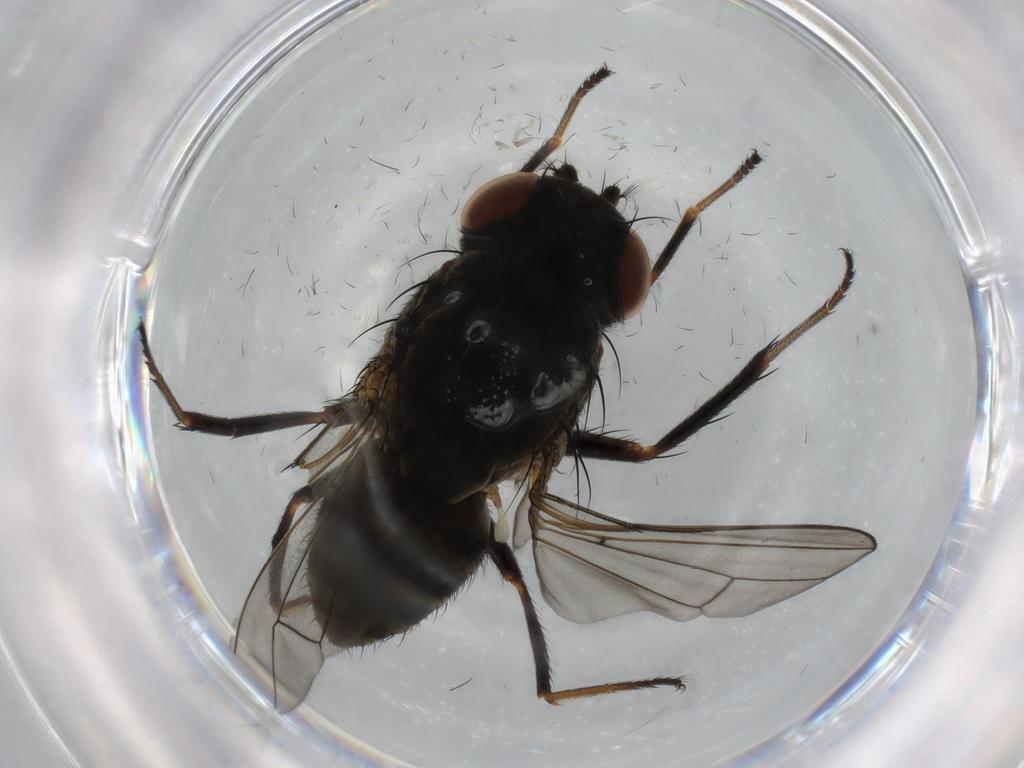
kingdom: Animalia
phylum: Arthropoda
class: Insecta
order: Diptera
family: Ephydridae
